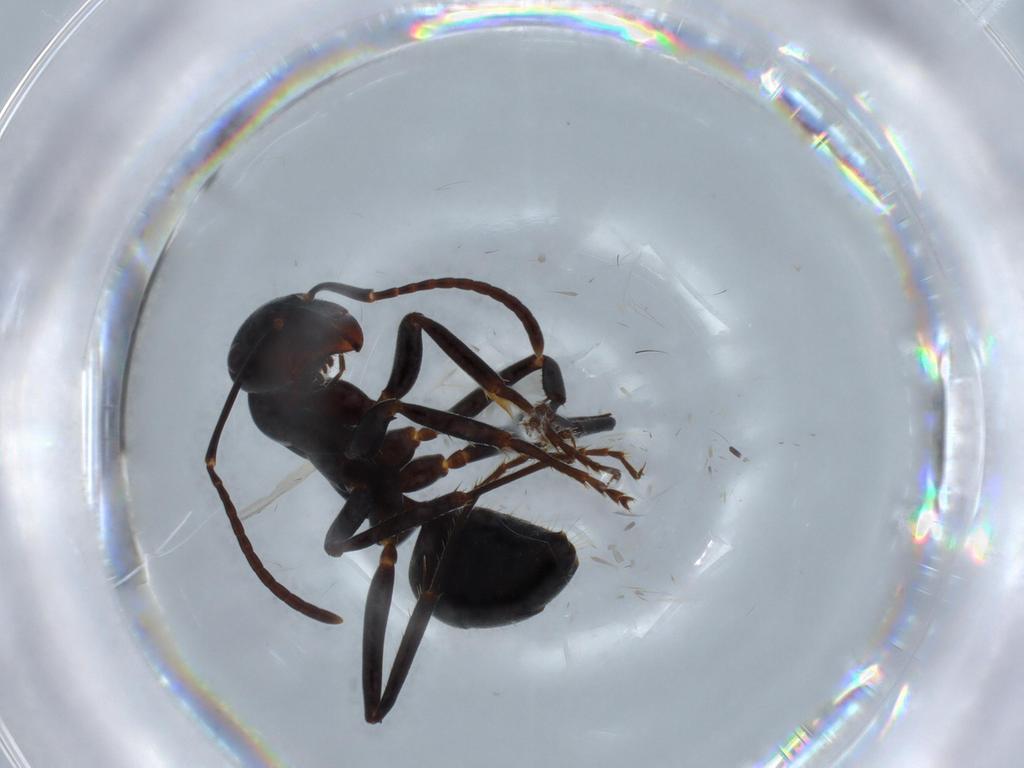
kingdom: Animalia
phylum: Arthropoda
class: Insecta
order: Hymenoptera
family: Formicidae
